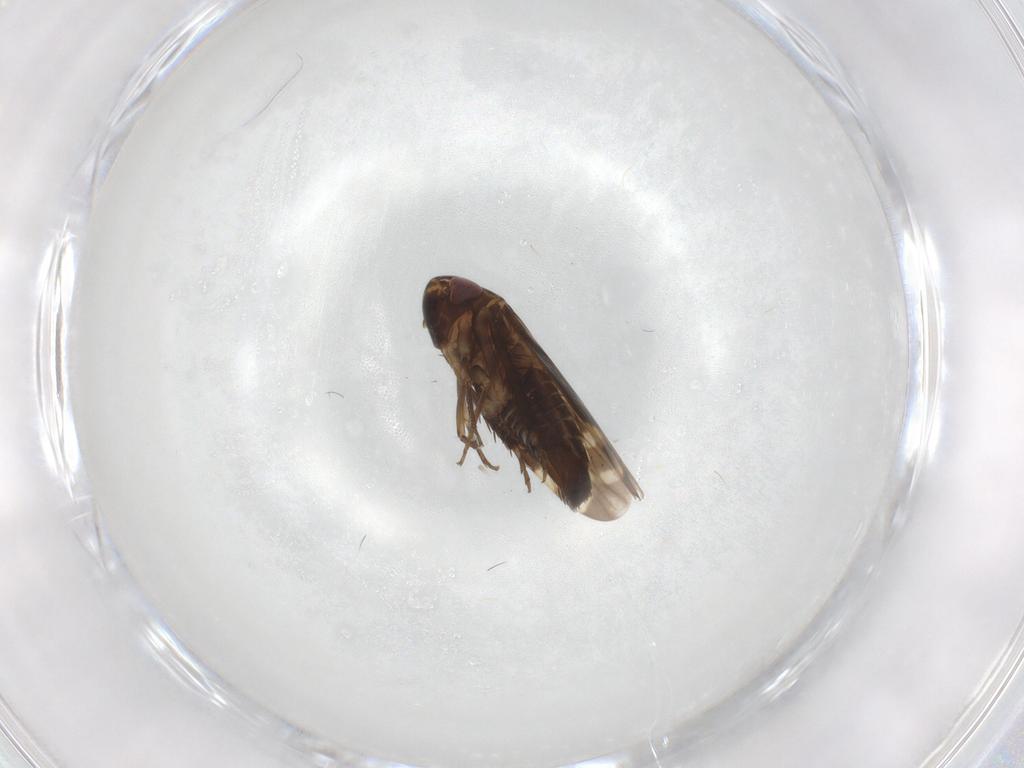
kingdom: Animalia
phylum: Arthropoda
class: Insecta
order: Hemiptera
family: Cicadellidae
